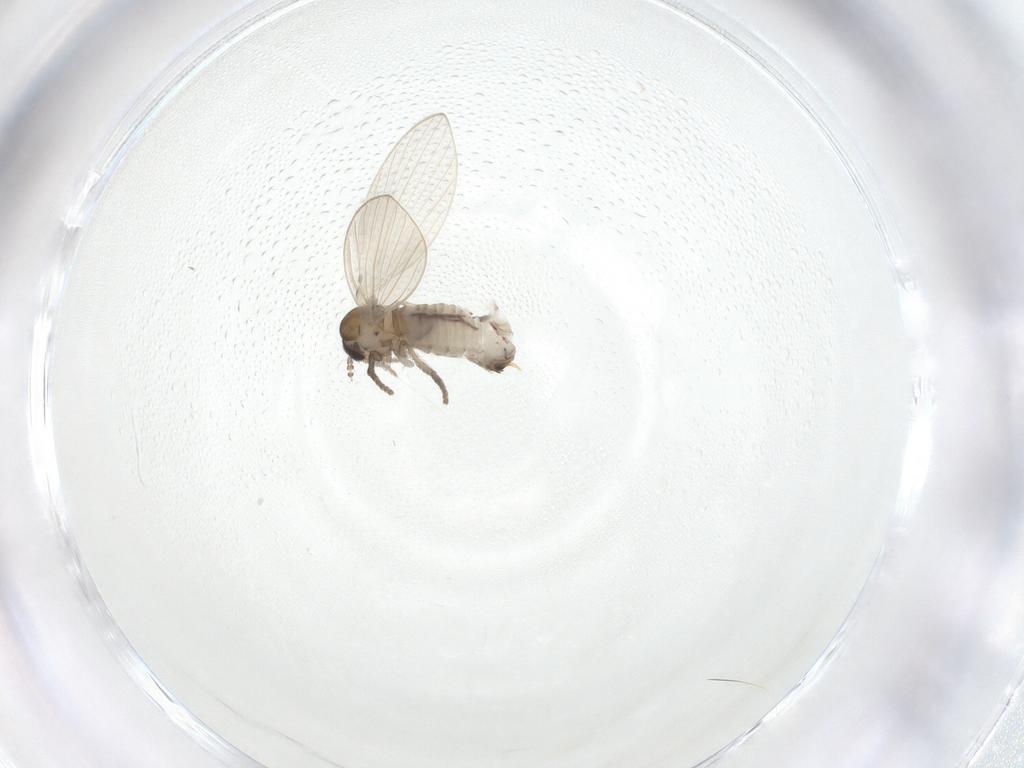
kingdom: Animalia
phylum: Arthropoda
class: Insecta
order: Diptera
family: Psychodidae
